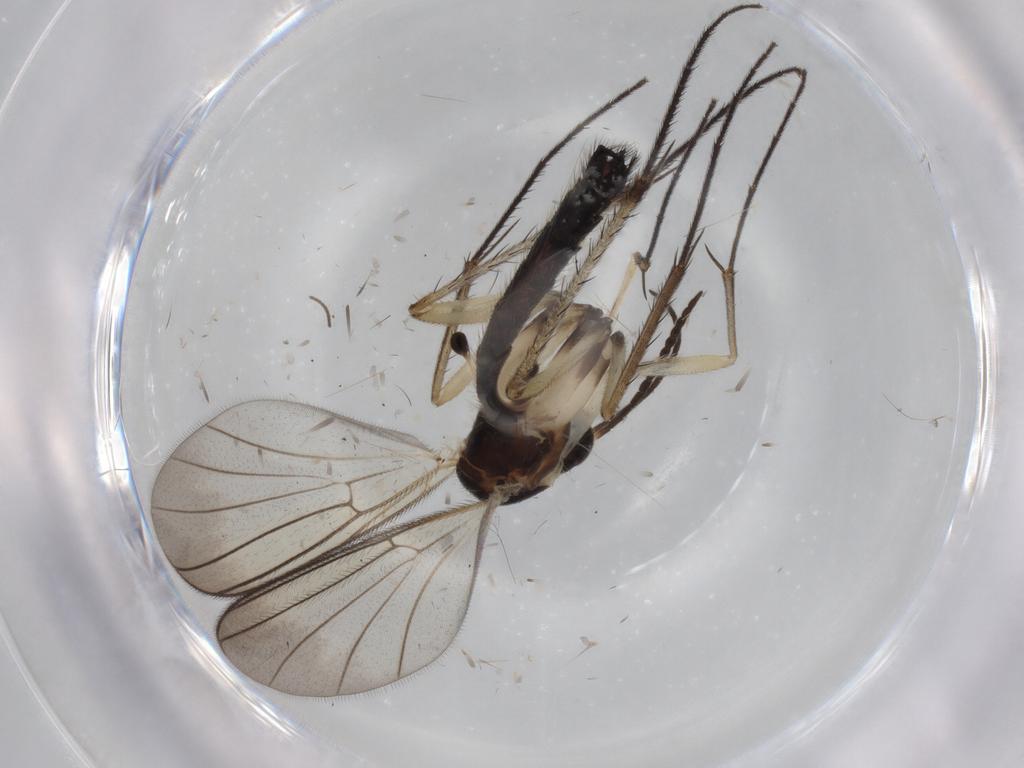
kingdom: Animalia
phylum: Arthropoda
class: Insecta
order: Diptera
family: Mycetophilidae
